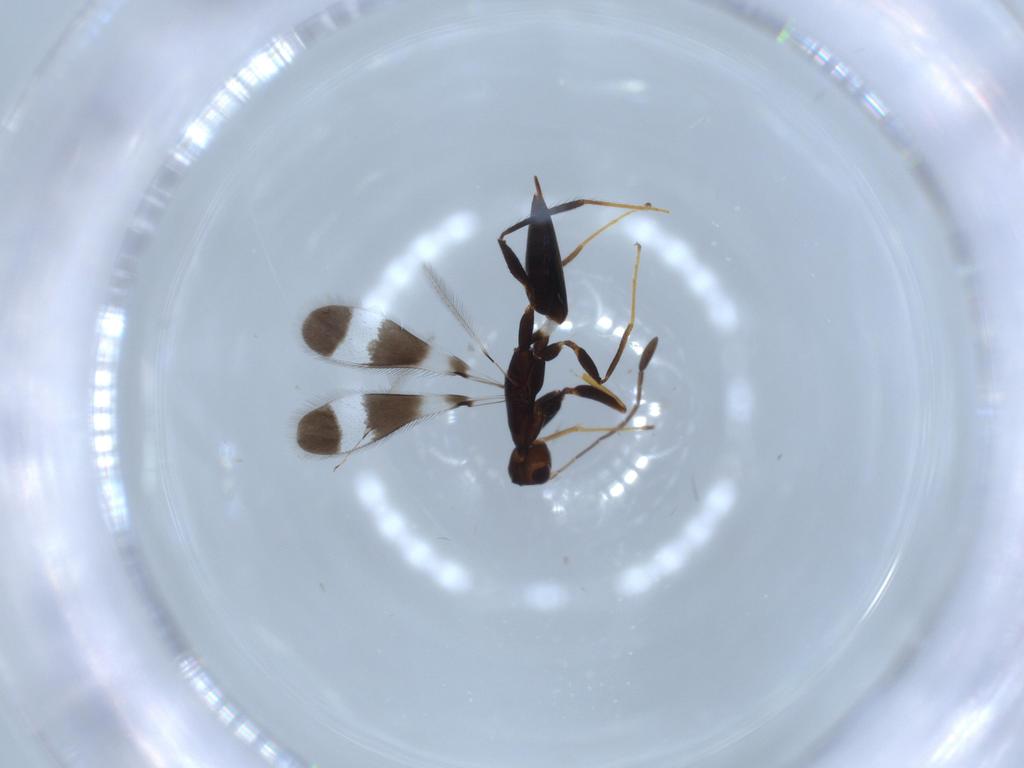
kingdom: Animalia
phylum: Arthropoda
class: Insecta
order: Hymenoptera
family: Mymaridae
